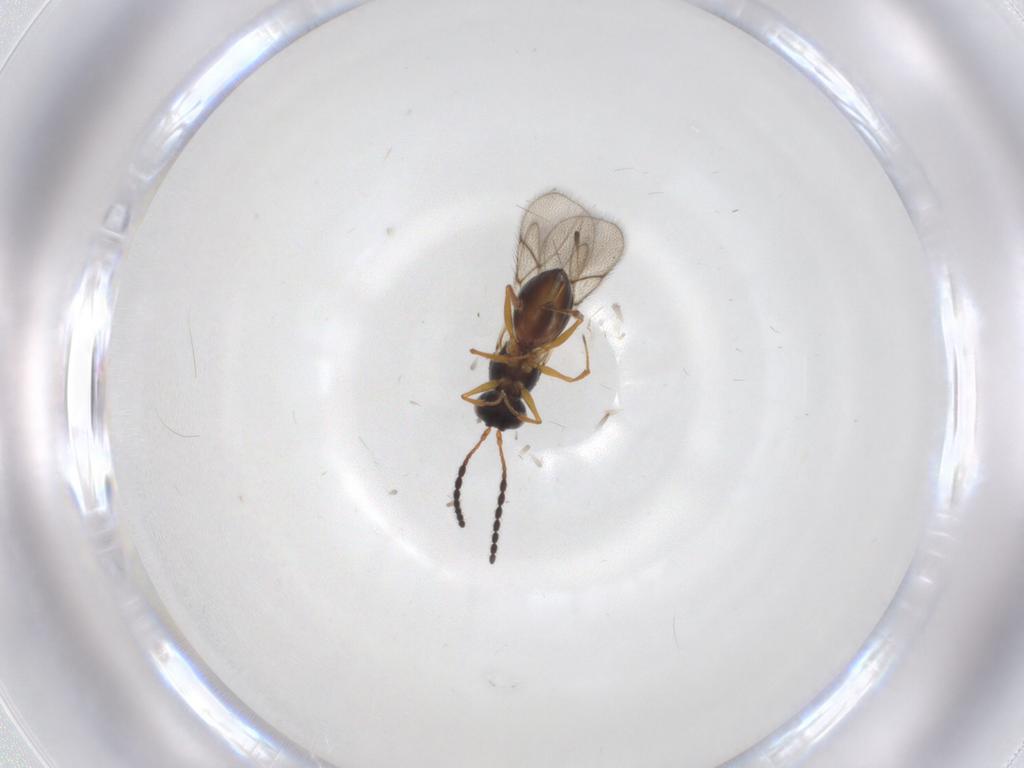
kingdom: Animalia
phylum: Arthropoda
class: Insecta
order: Hymenoptera
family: Figitidae
